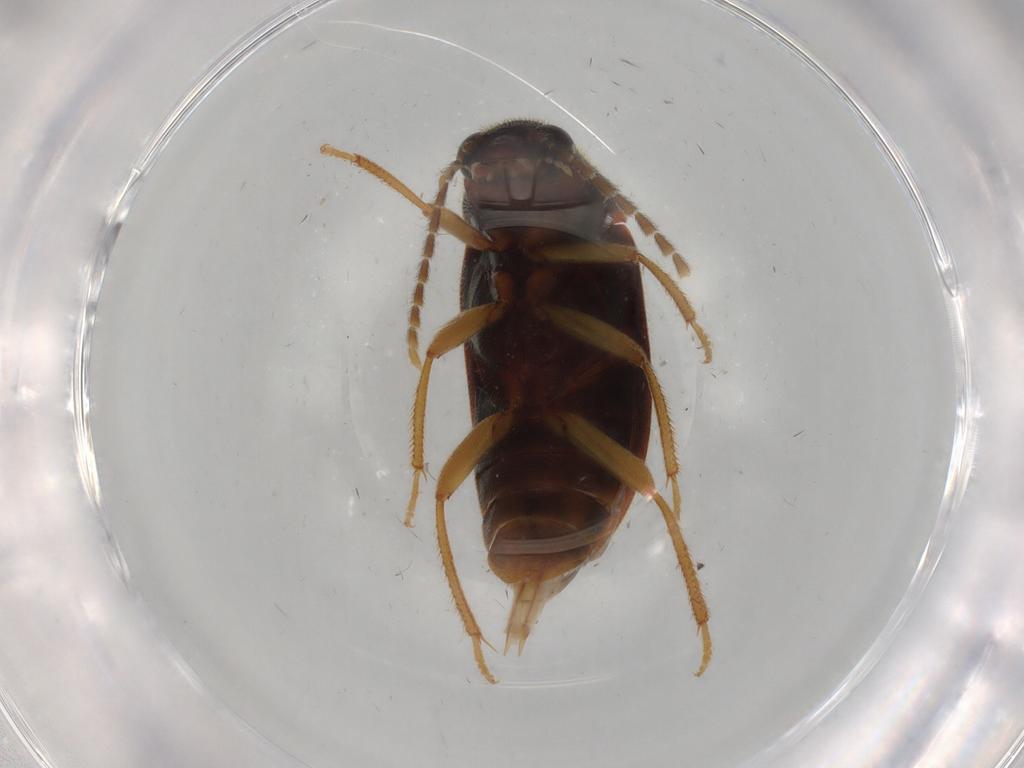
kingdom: Animalia
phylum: Arthropoda
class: Insecta
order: Coleoptera
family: Ptilodactylidae
